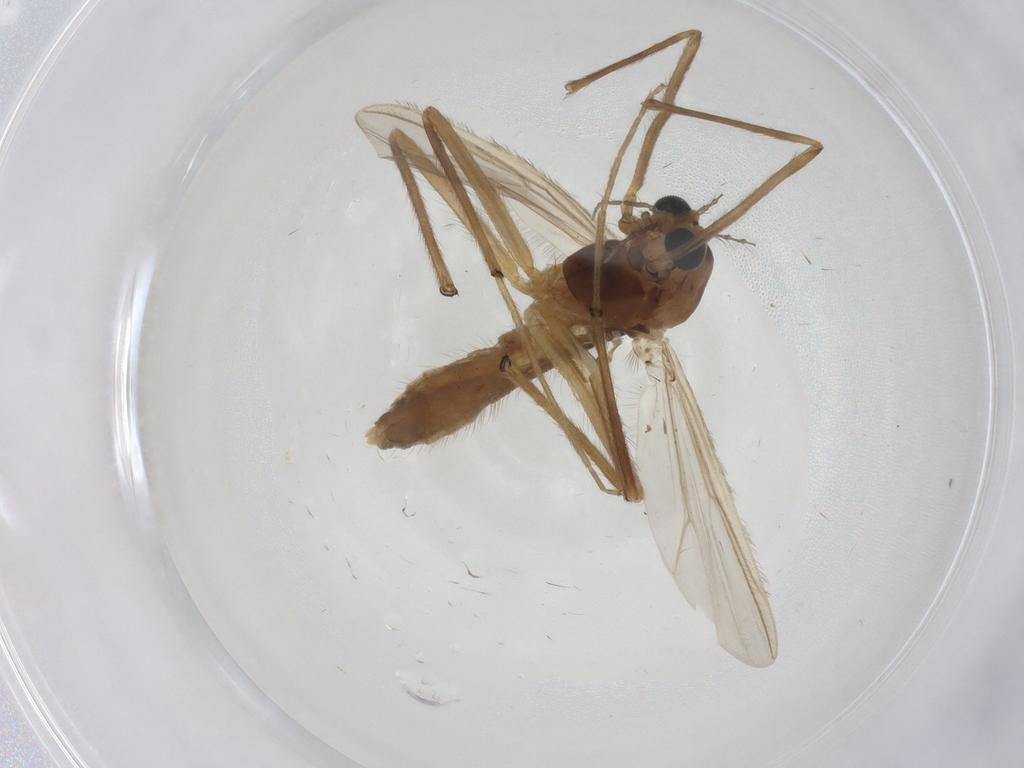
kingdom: Animalia
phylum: Arthropoda
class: Insecta
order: Diptera
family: Chironomidae
